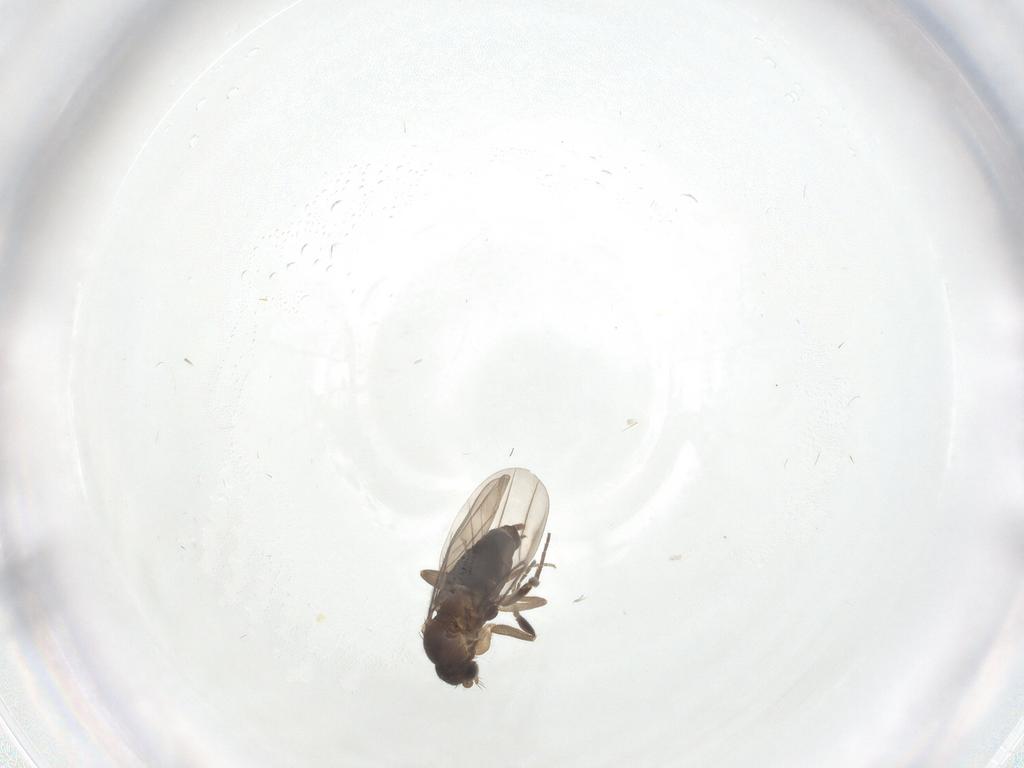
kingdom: Animalia
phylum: Arthropoda
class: Insecta
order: Diptera
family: Phoridae
